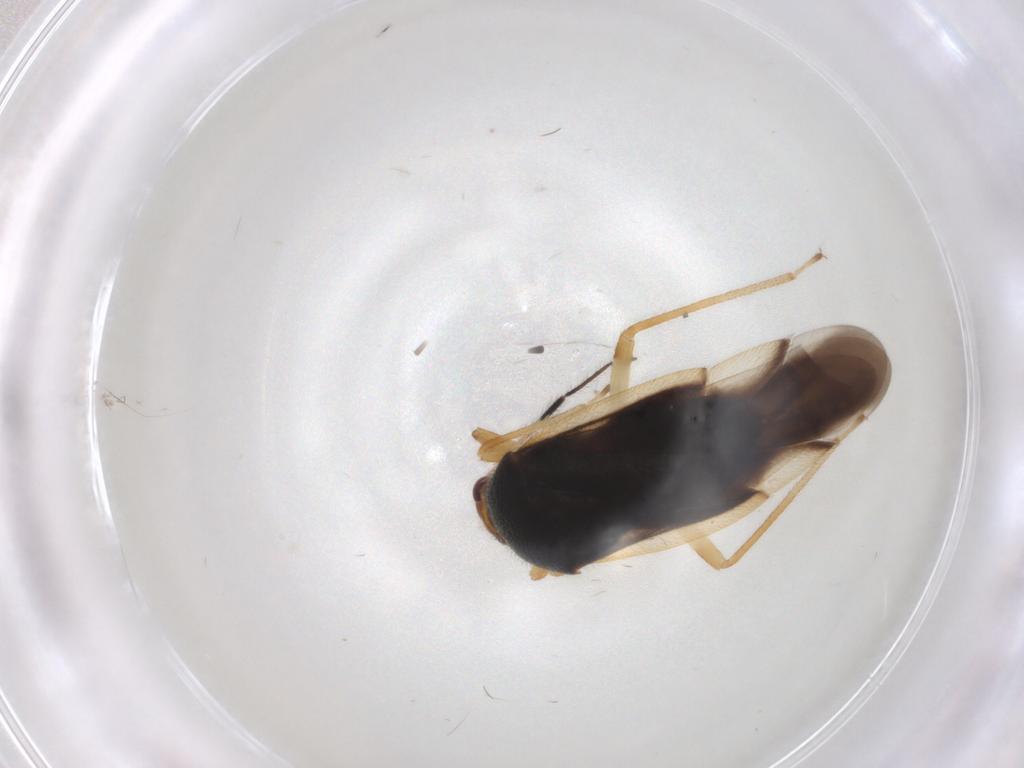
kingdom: Animalia
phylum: Arthropoda
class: Insecta
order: Hemiptera
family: Miridae
